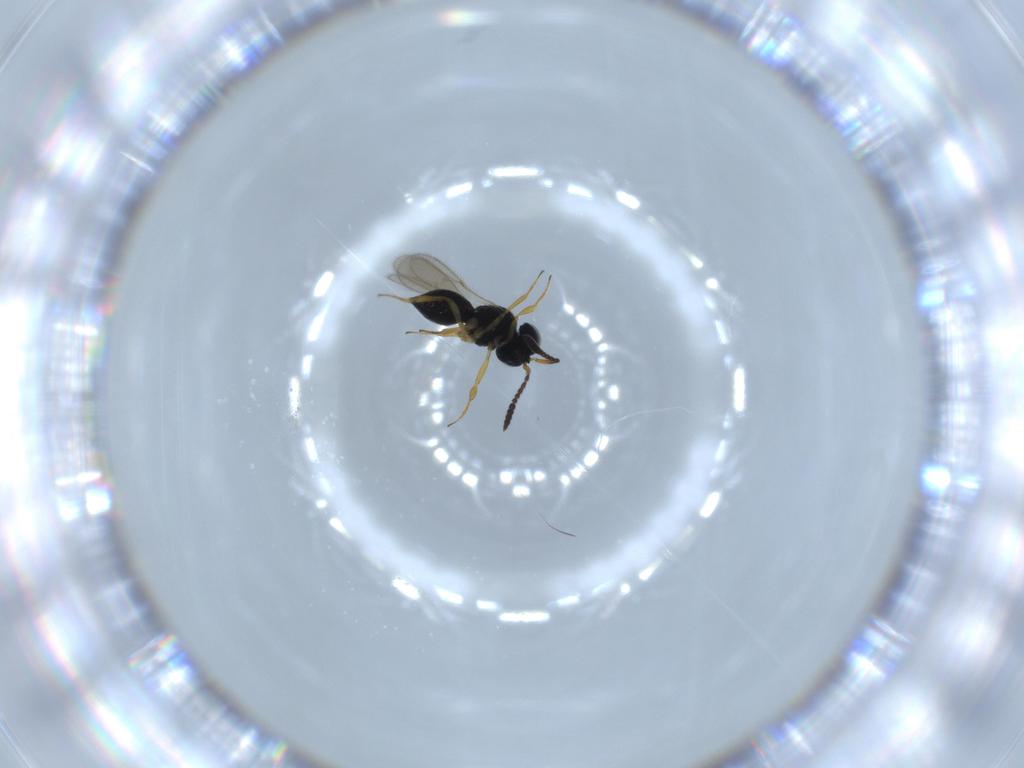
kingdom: Animalia
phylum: Arthropoda
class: Insecta
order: Hymenoptera
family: Scelionidae
